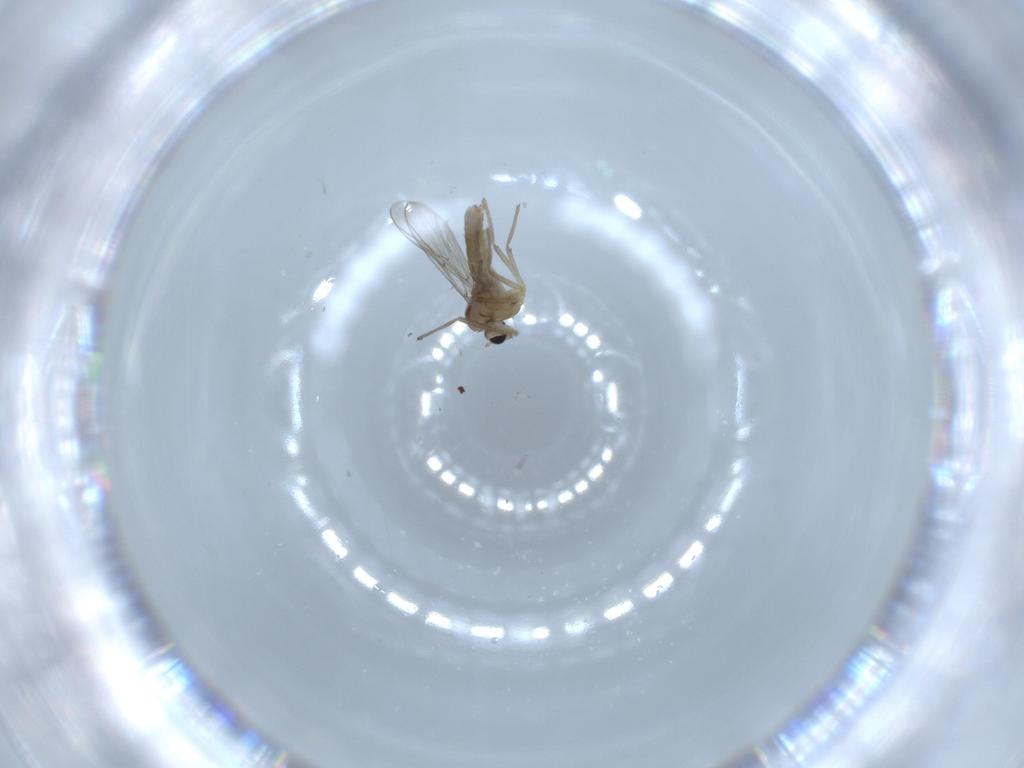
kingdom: Animalia
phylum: Arthropoda
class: Insecta
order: Diptera
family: Chironomidae
